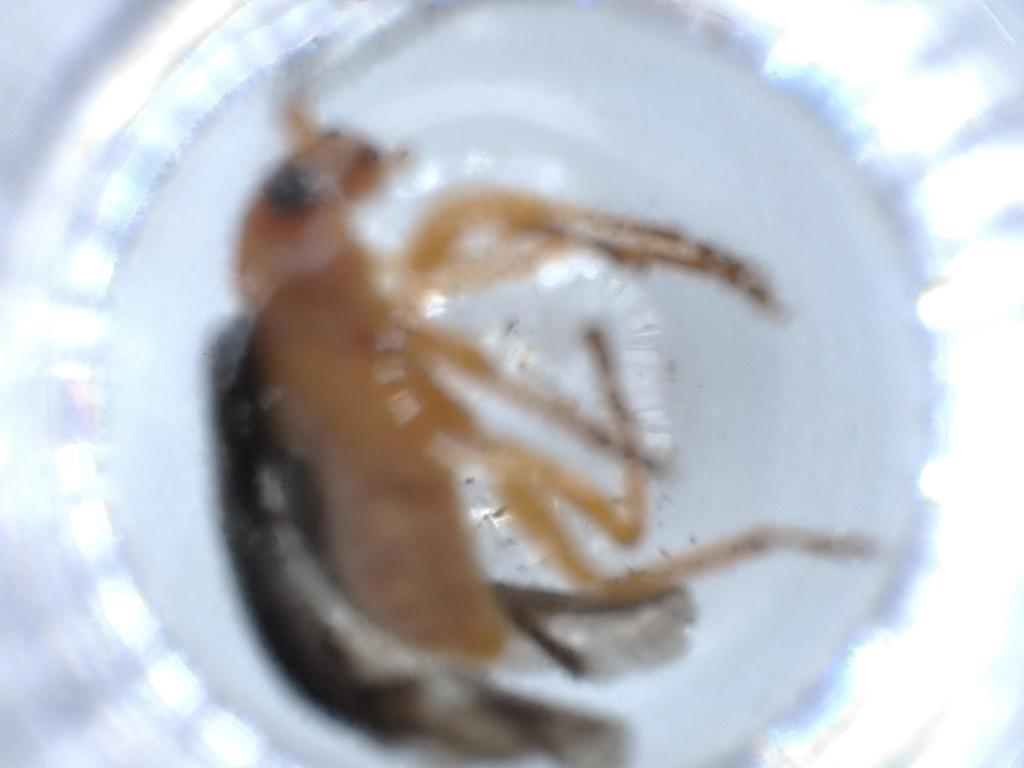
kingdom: Animalia
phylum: Arthropoda
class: Insecta
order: Coleoptera
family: Chrysomelidae
